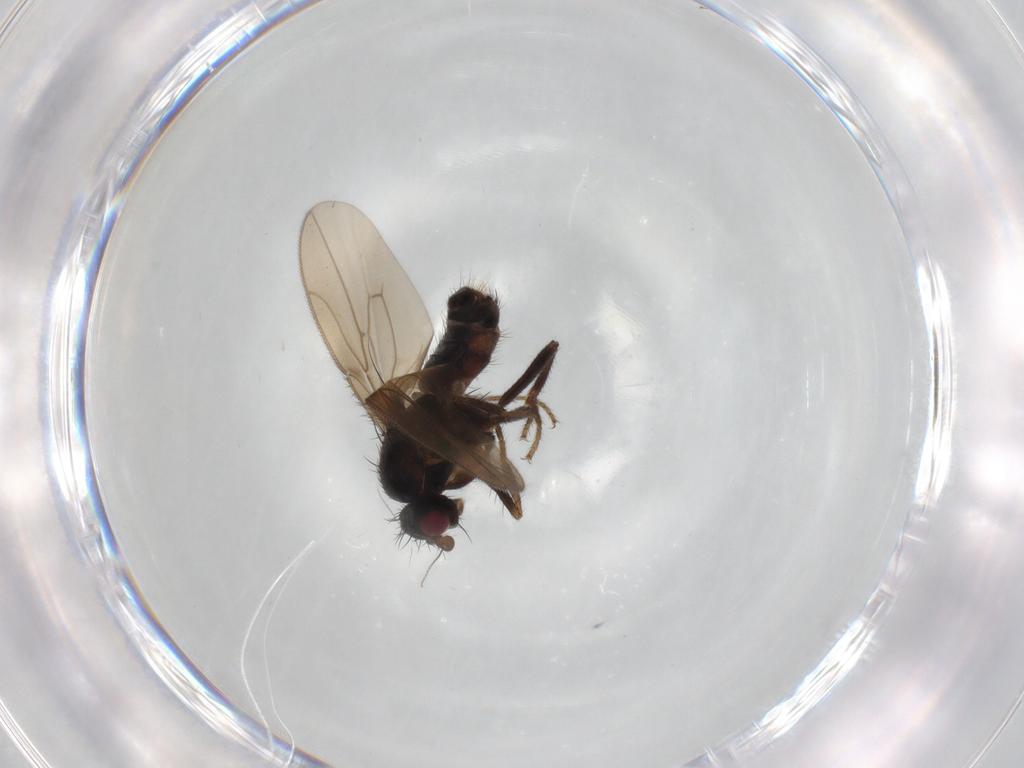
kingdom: Animalia
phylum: Arthropoda
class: Insecta
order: Diptera
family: Sphaeroceridae
